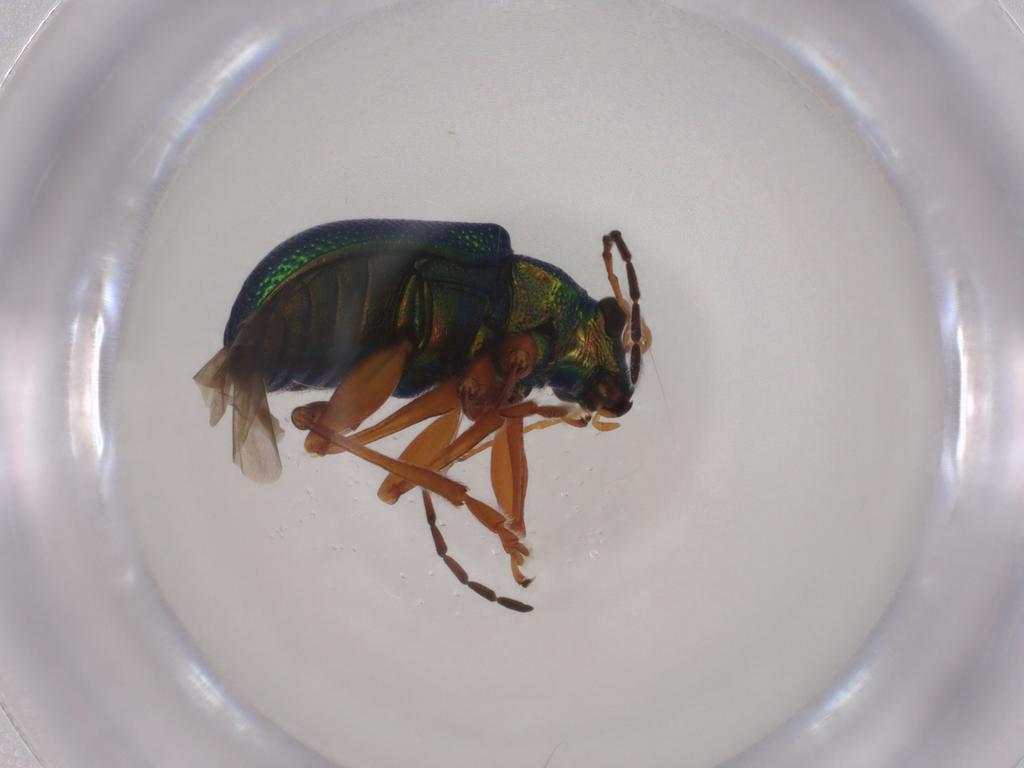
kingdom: Animalia
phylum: Arthropoda
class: Insecta
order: Coleoptera
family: Chrysomelidae
